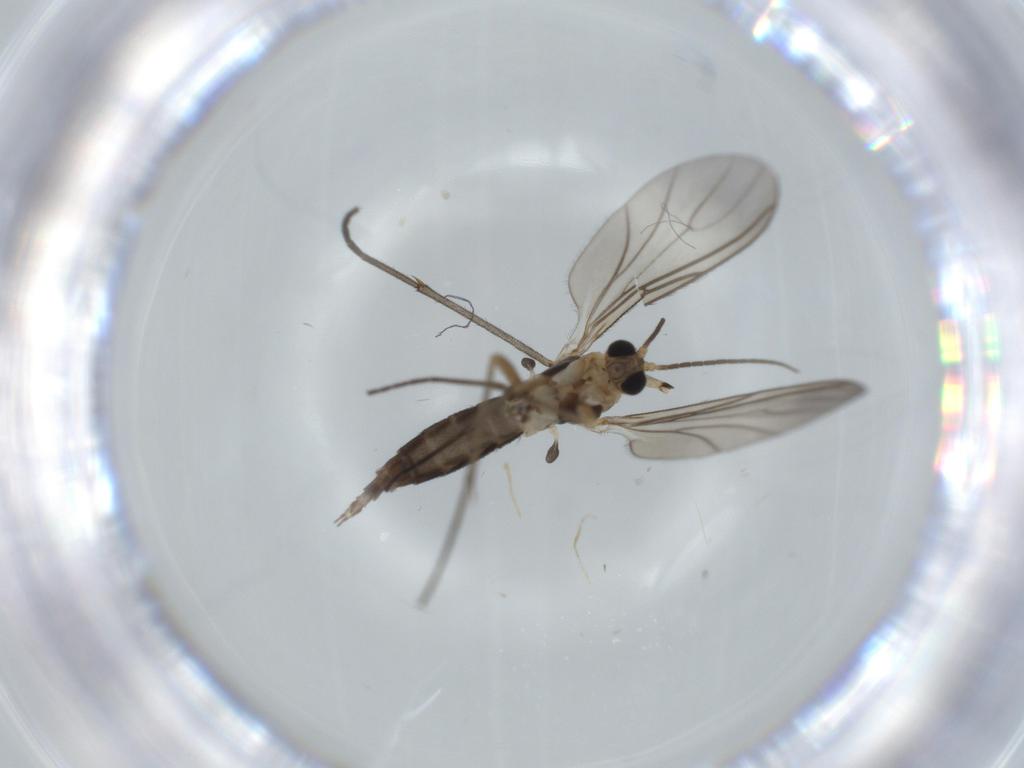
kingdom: Animalia
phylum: Arthropoda
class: Insecta
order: Diptera
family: Sciaridae
